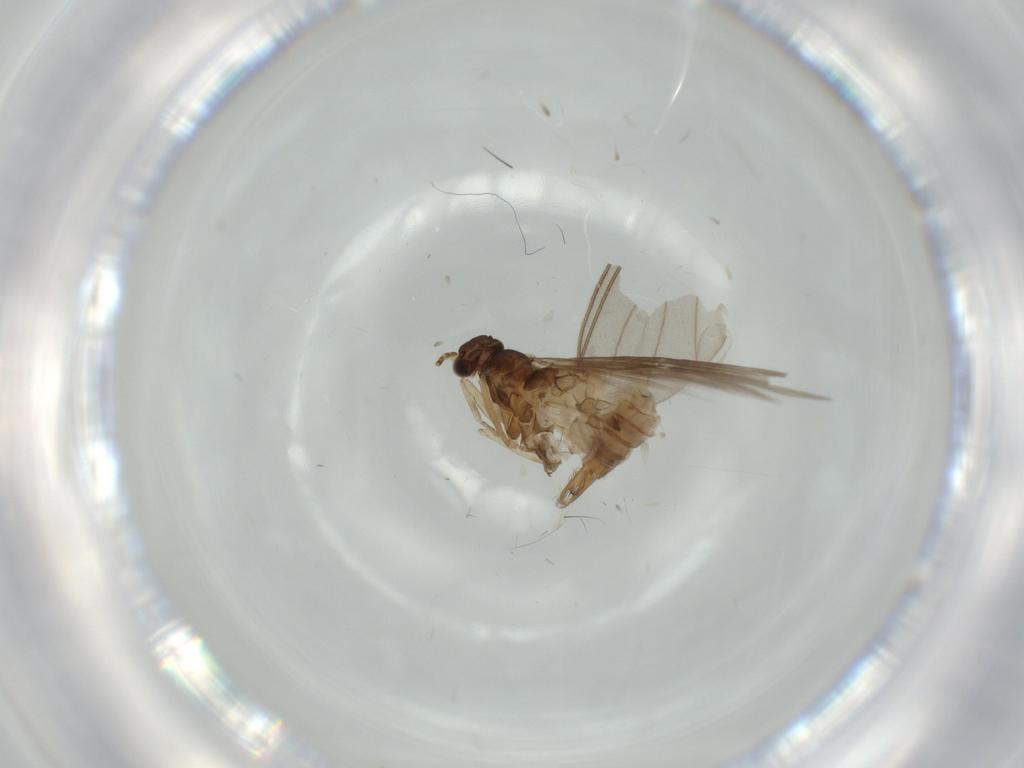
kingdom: Animalia
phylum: Arthropoda
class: Insecta
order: Trichoptera
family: Hydroptilidae
